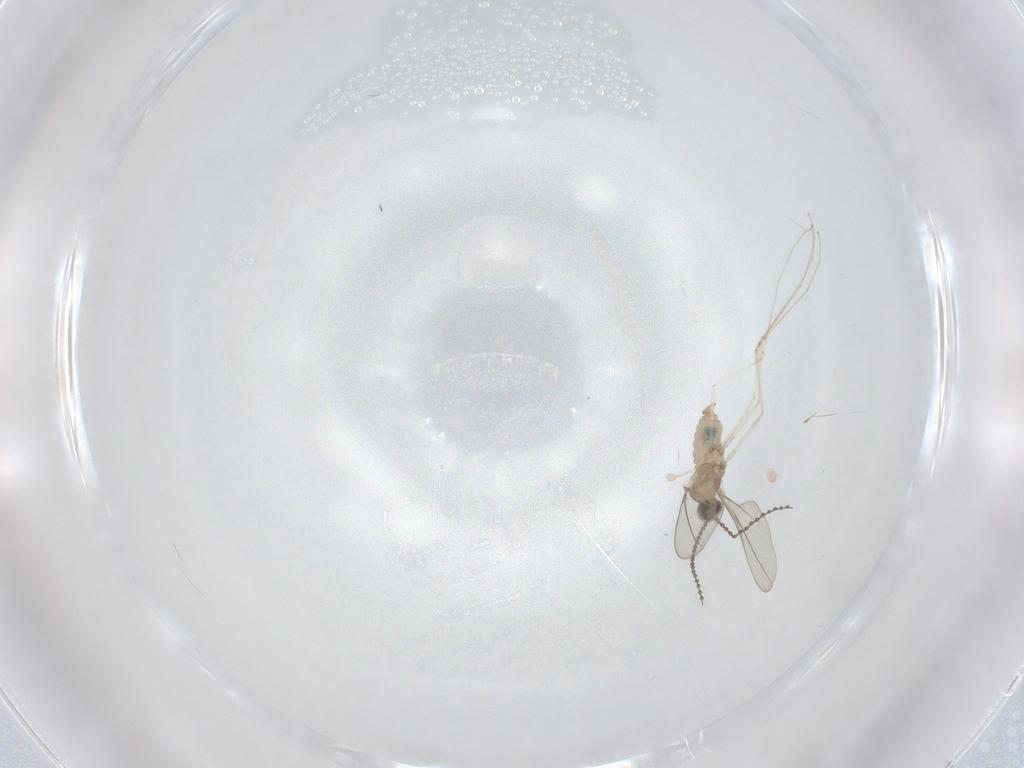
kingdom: Animalia
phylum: Arthropoda
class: Insecta
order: Diptera
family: Cecidomyiidae
